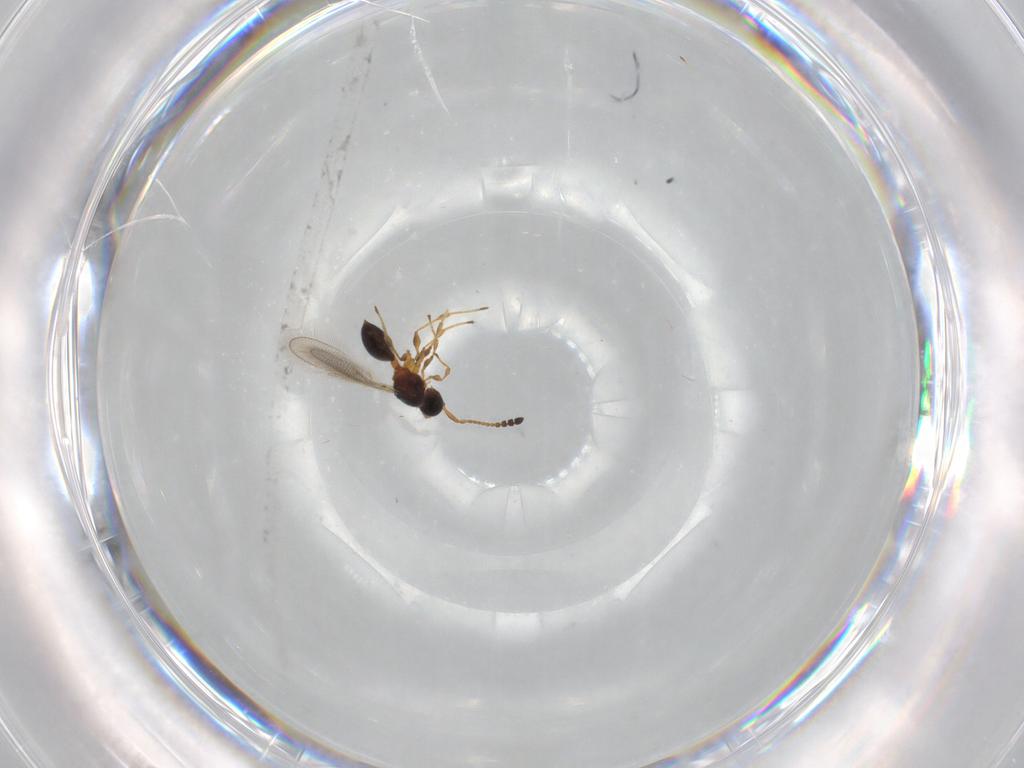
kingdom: Animalia
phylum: Arthropoda
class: Insecta
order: Hymenoptera
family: Diapriidae
